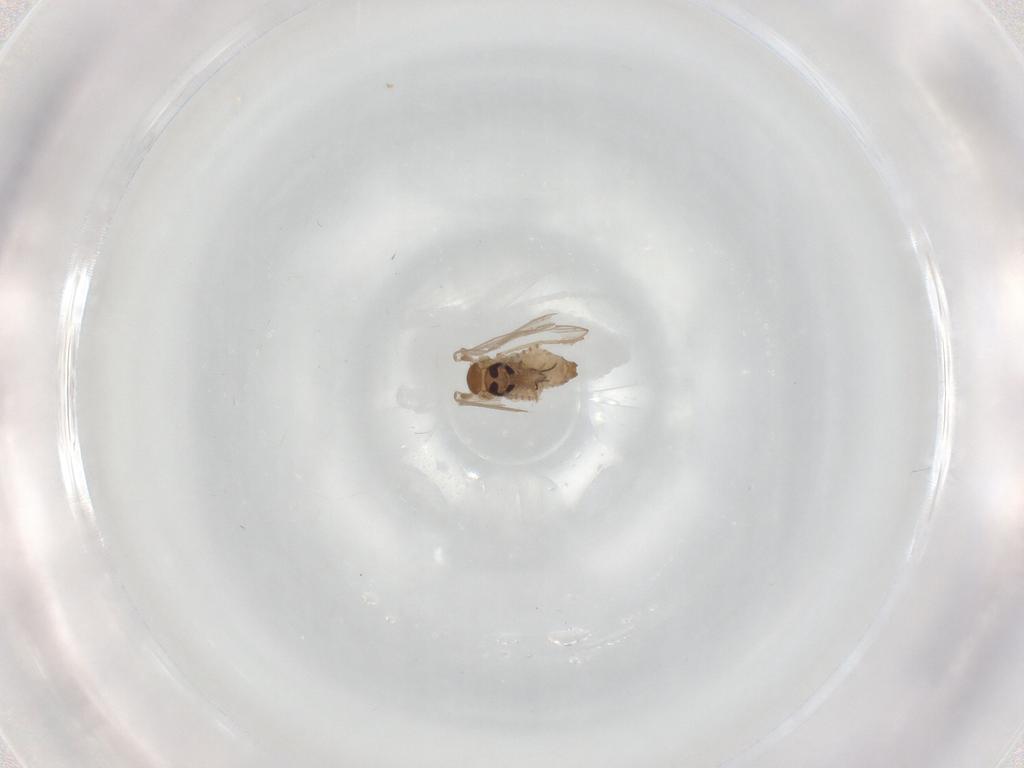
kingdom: Animalia
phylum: Arthropoda
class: Insecta
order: Diptera
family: Psychodidae
